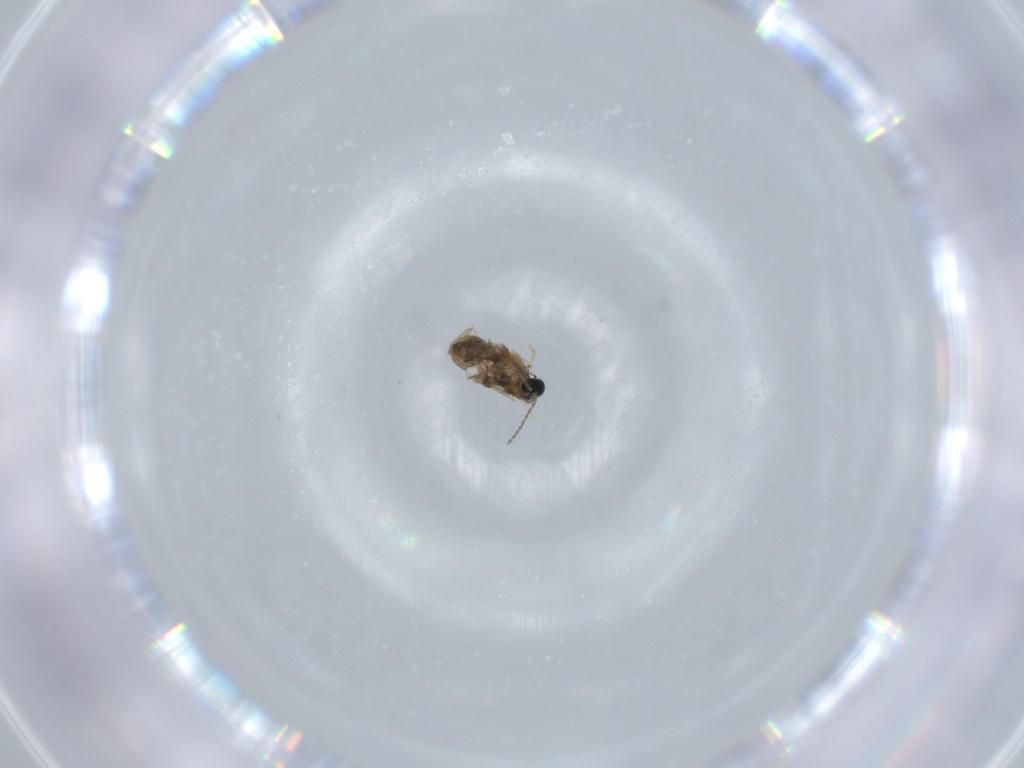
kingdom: Animalia
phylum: Arthropoda
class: Insecta
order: Diptera
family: Cecidomyiidae
